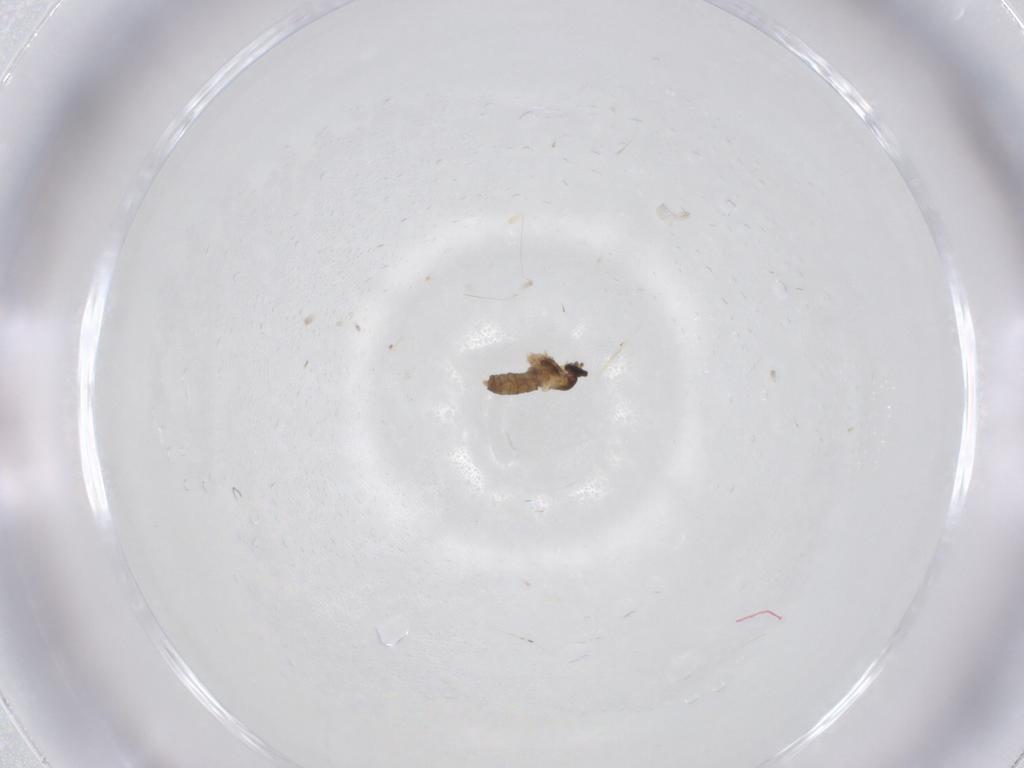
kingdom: Animalia
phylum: Arthropoda
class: Insecta
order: Diptera
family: Cecidomyiidae
